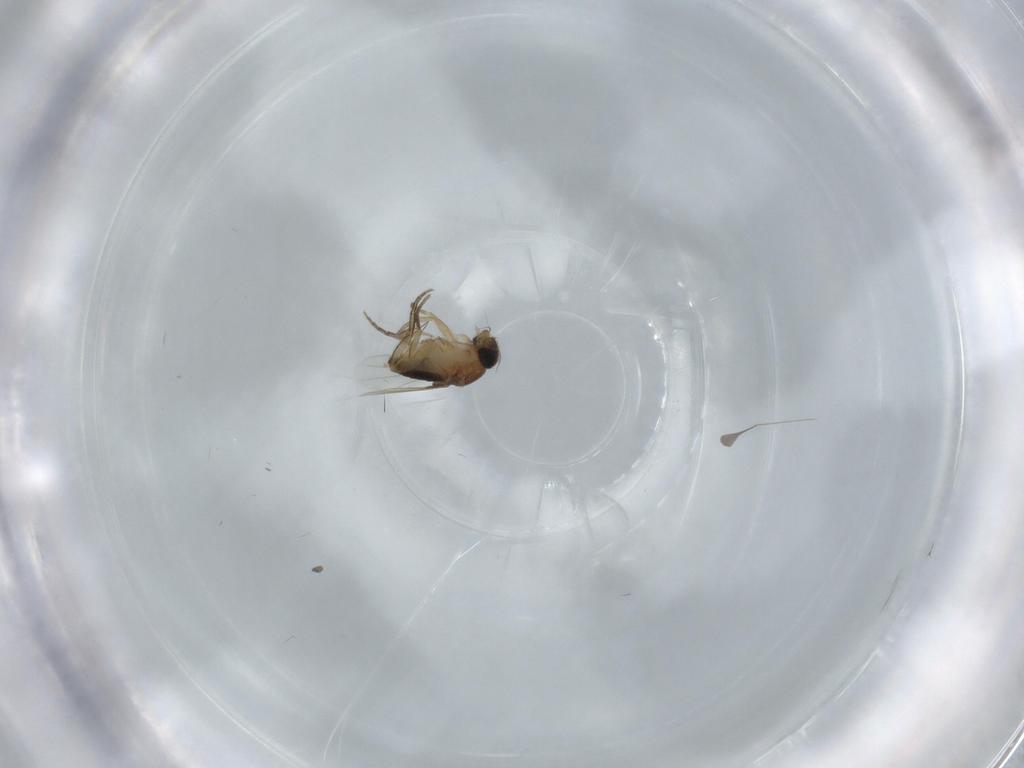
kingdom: Animalia
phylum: Arthropoda
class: Insecta
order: Diptera
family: Phoridae
